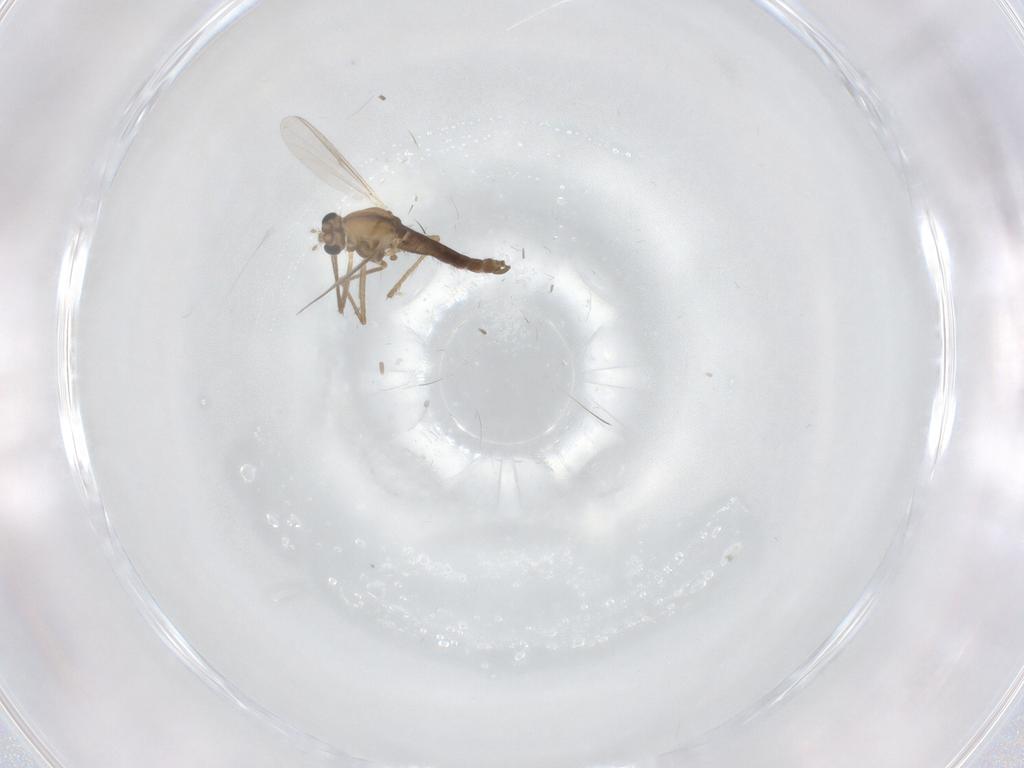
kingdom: Animalia
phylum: Arthropoda
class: Insecta
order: Diptera
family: Chironomidae
